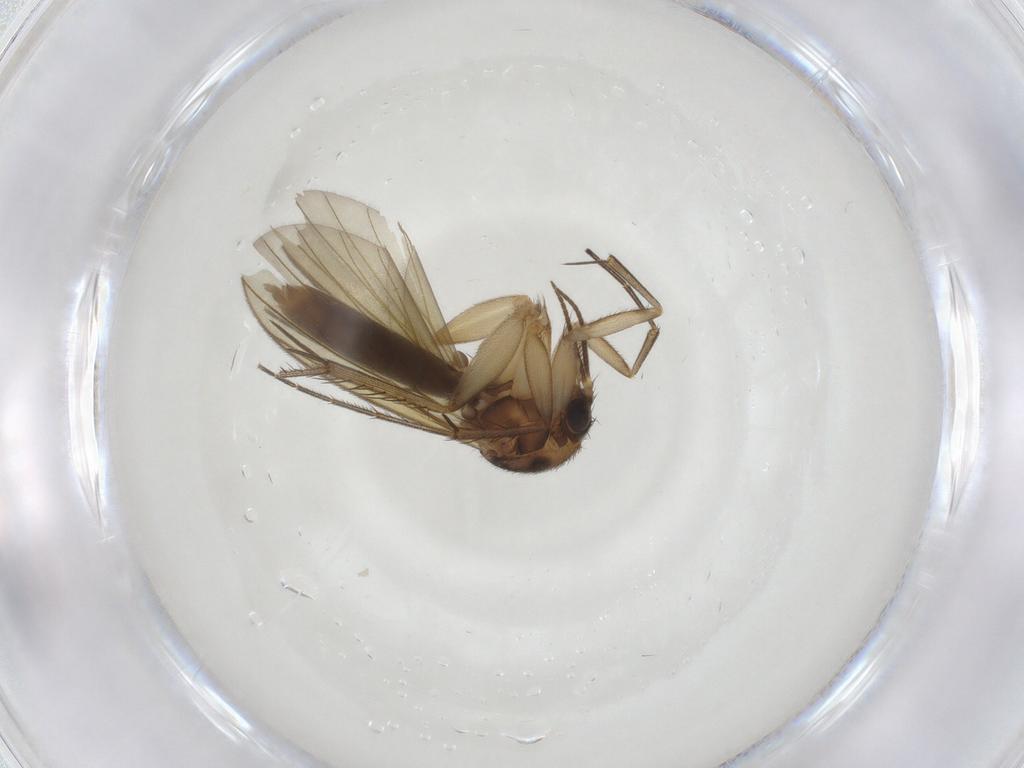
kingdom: Animalia
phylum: Arthropoda
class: Insecta
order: Diptera
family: Mycetophilidae
